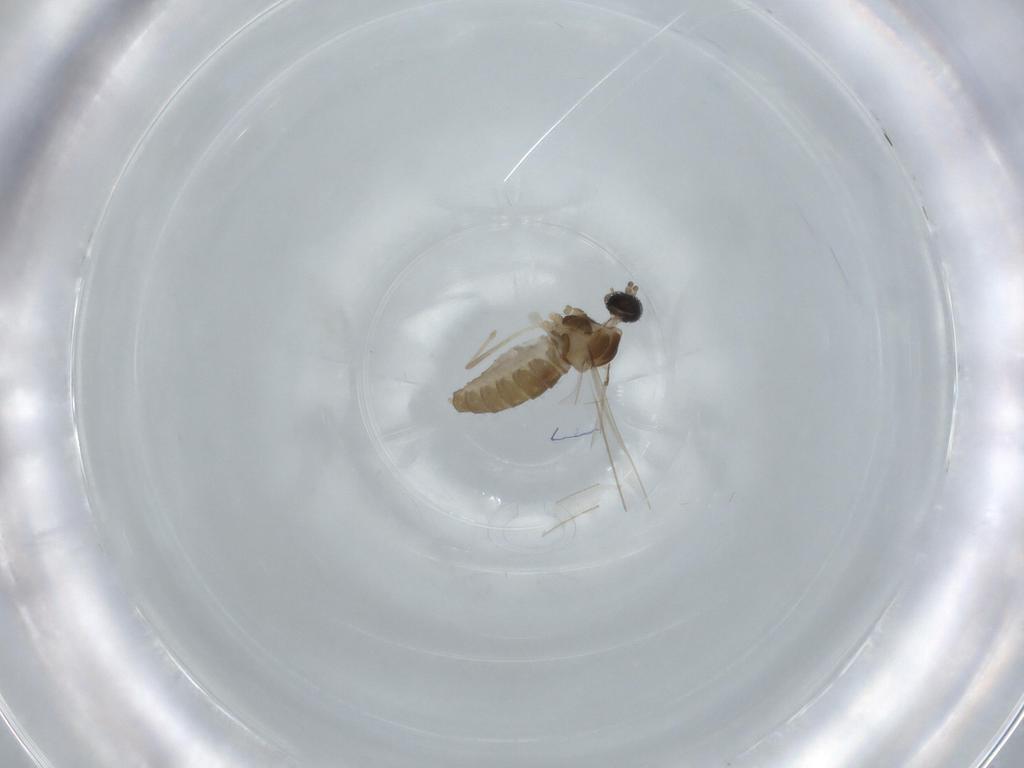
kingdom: Animalia
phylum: Arthropoda
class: Insecta
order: Diptera
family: Cecidomyiidae
